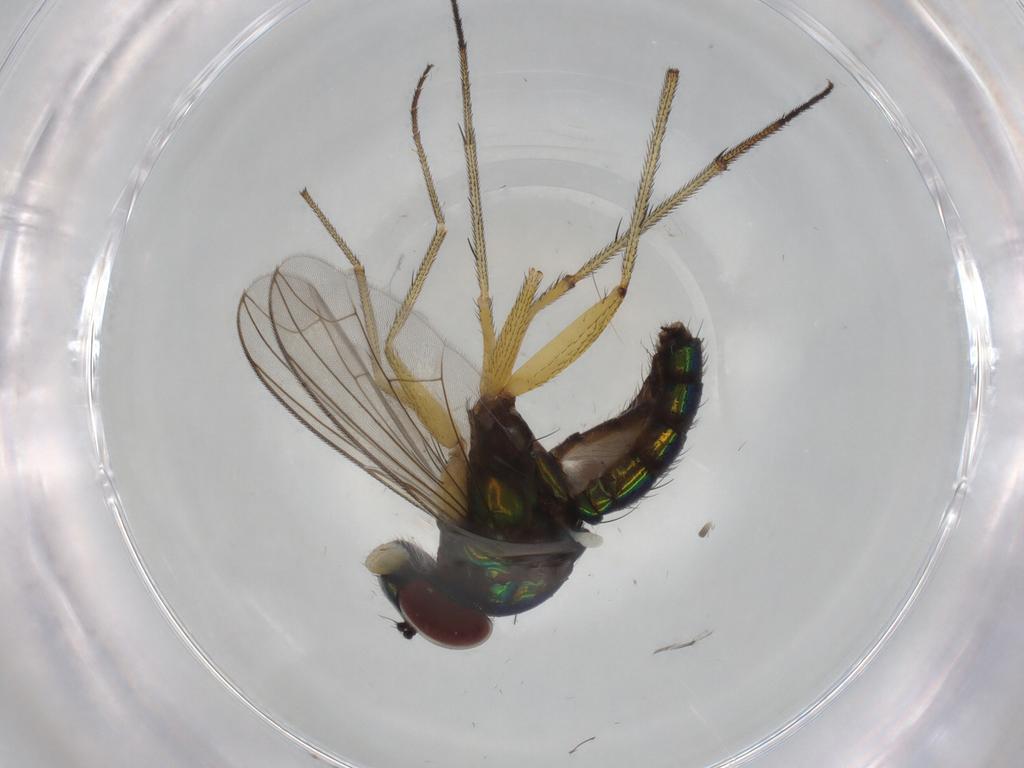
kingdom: Animalia
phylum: Arthropoda
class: Insecta
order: Diptera
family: Dolichopodidae
